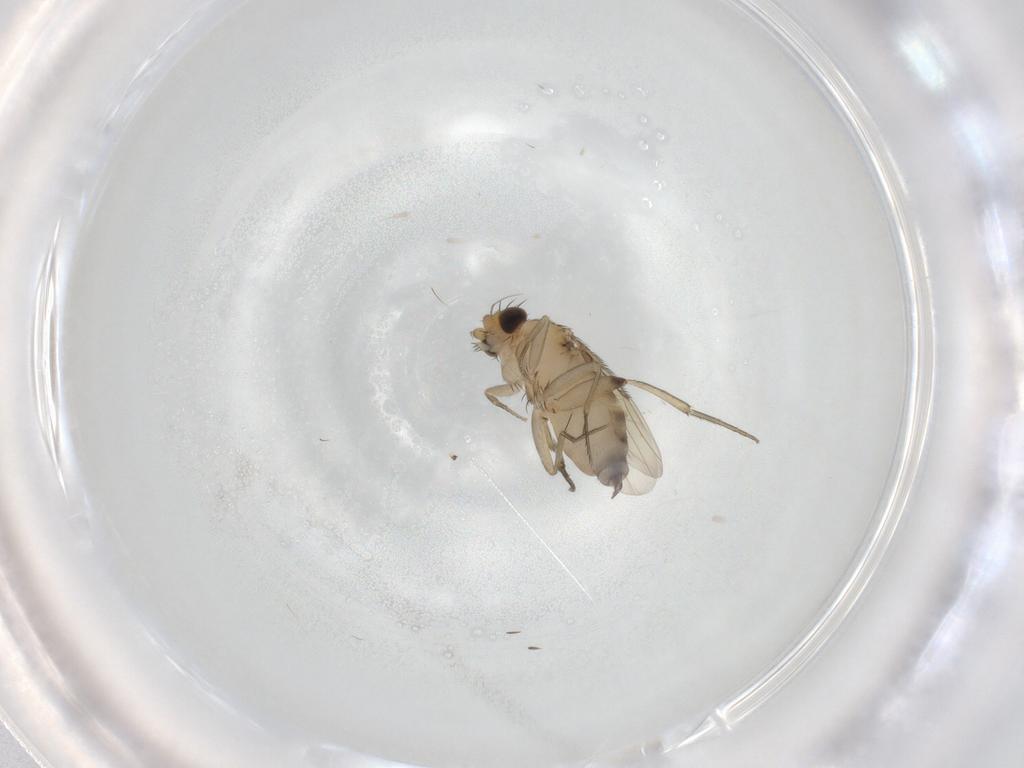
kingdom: Animalia
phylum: Arthropoda
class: Insecta
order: Diptera
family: Phoridae
